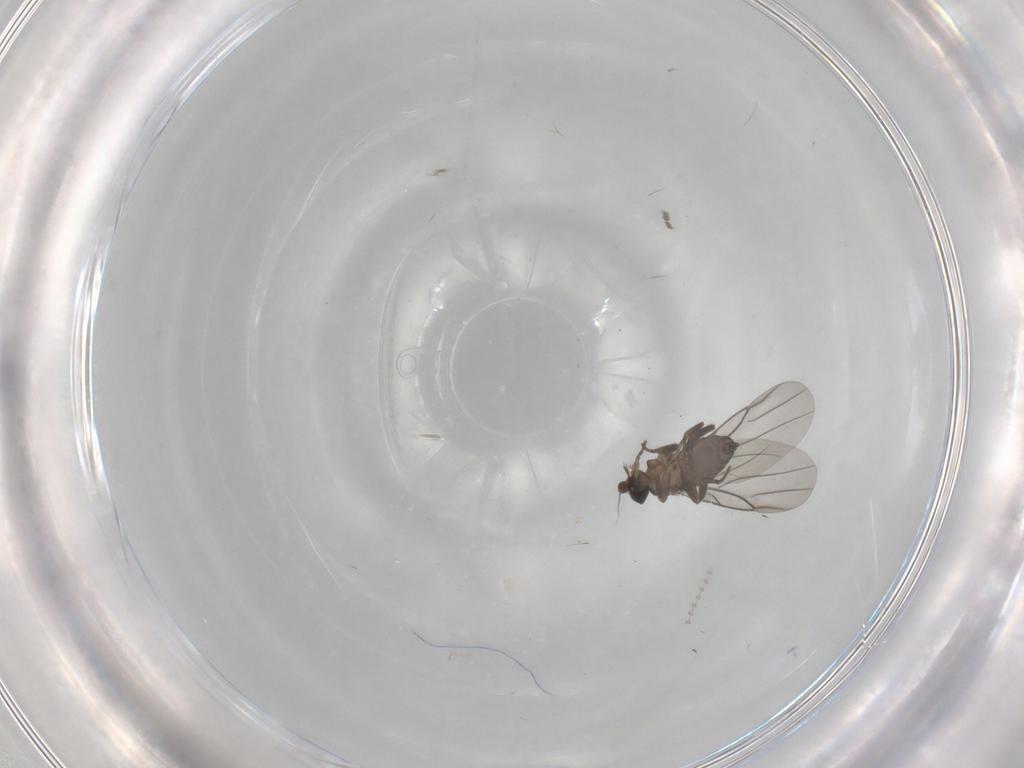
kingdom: Animalia
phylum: Arthropoda
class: Insecta
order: Diptera
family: Cecidomyiidae
